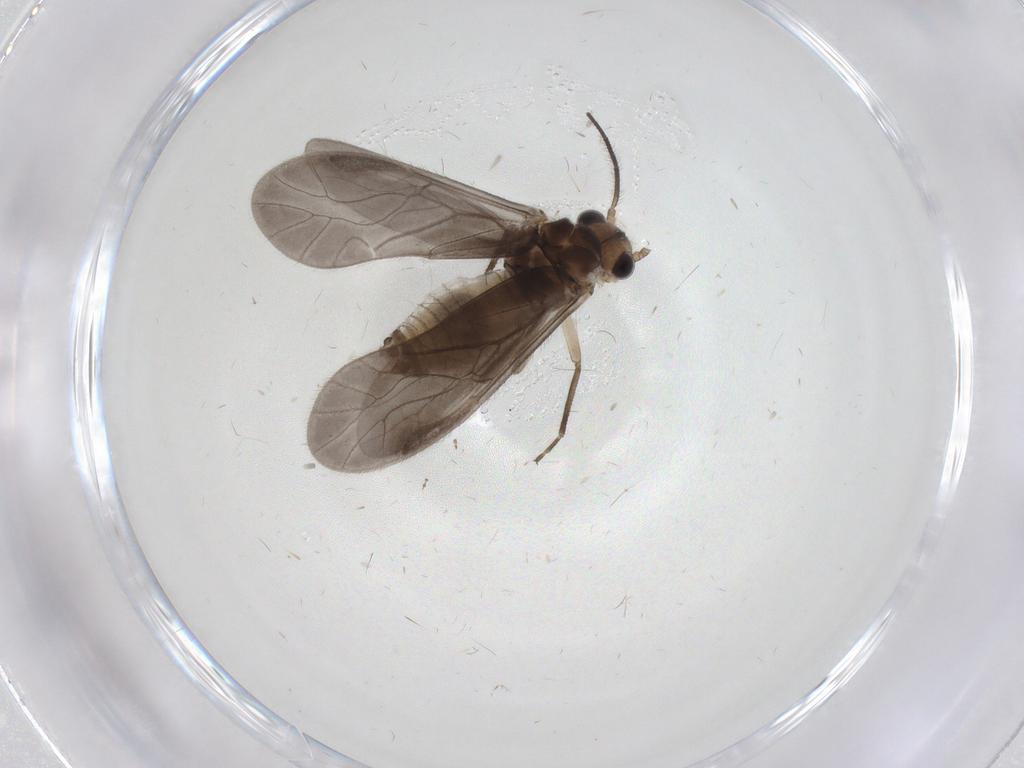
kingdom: Animalia
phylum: Arthropoda
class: Insecta
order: Psocodea
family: Caeciliusidae
